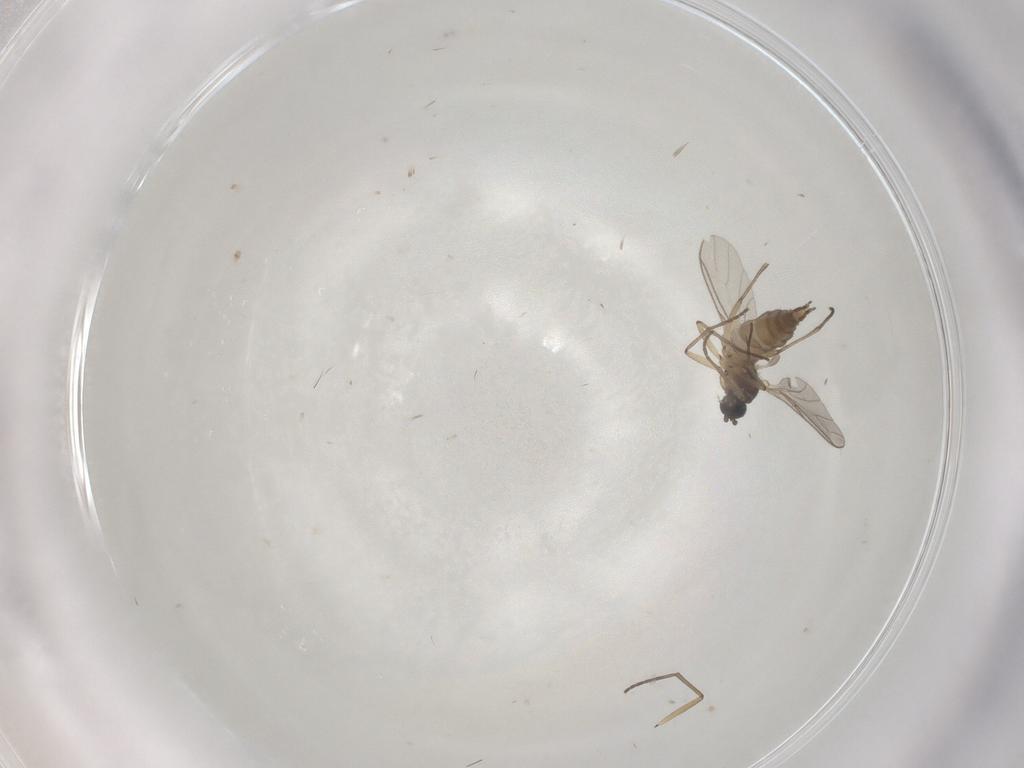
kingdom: Animalia
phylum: Arthropoda
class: Insecta
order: Diptera
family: Sciaridae
